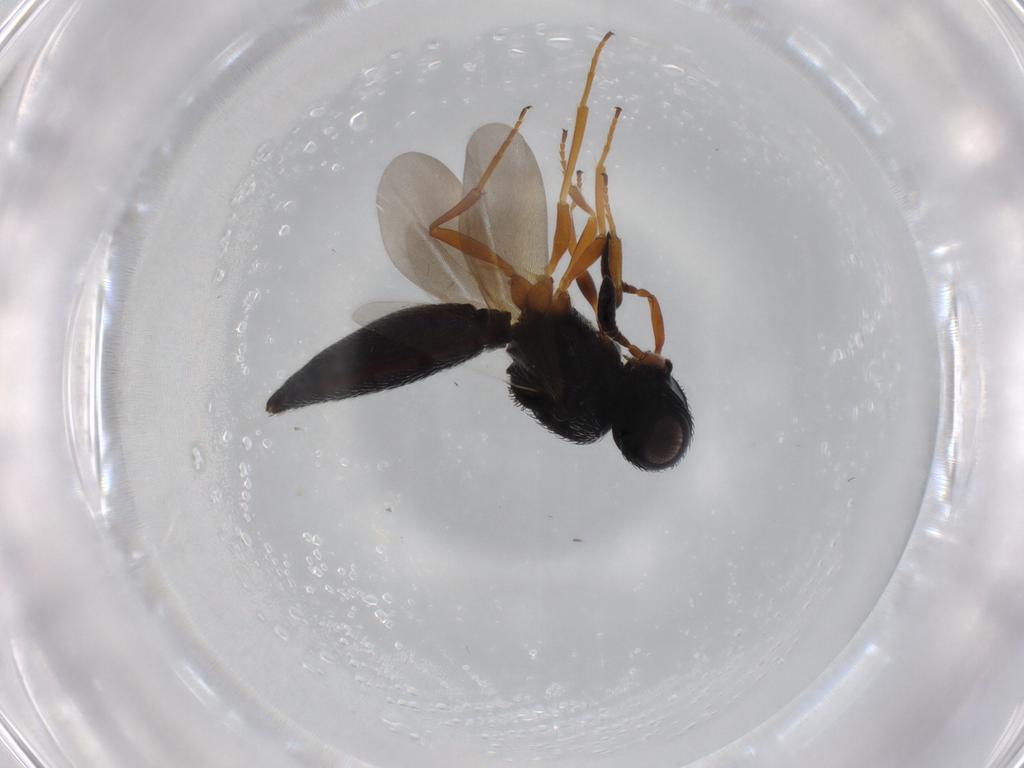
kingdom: Animalia
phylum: Arthropoda
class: Insecta
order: Hymenoptera
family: Scelionidae
